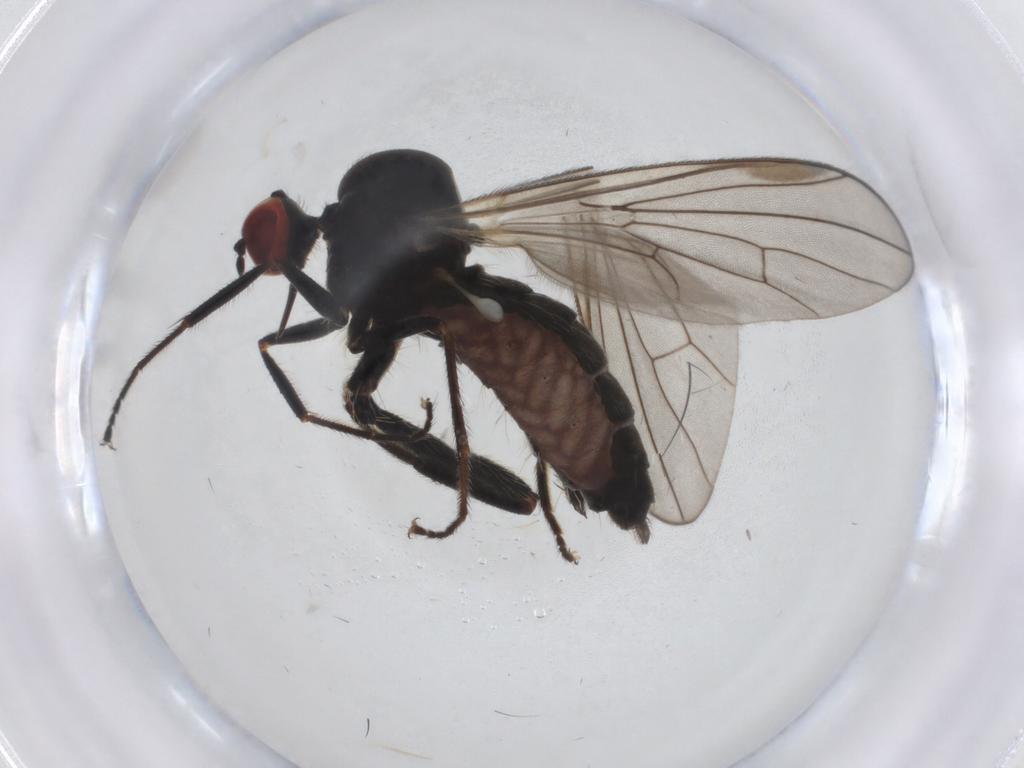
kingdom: Animalia
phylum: Arthropoda
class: Insecta
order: Diptera
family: Hybotidae
